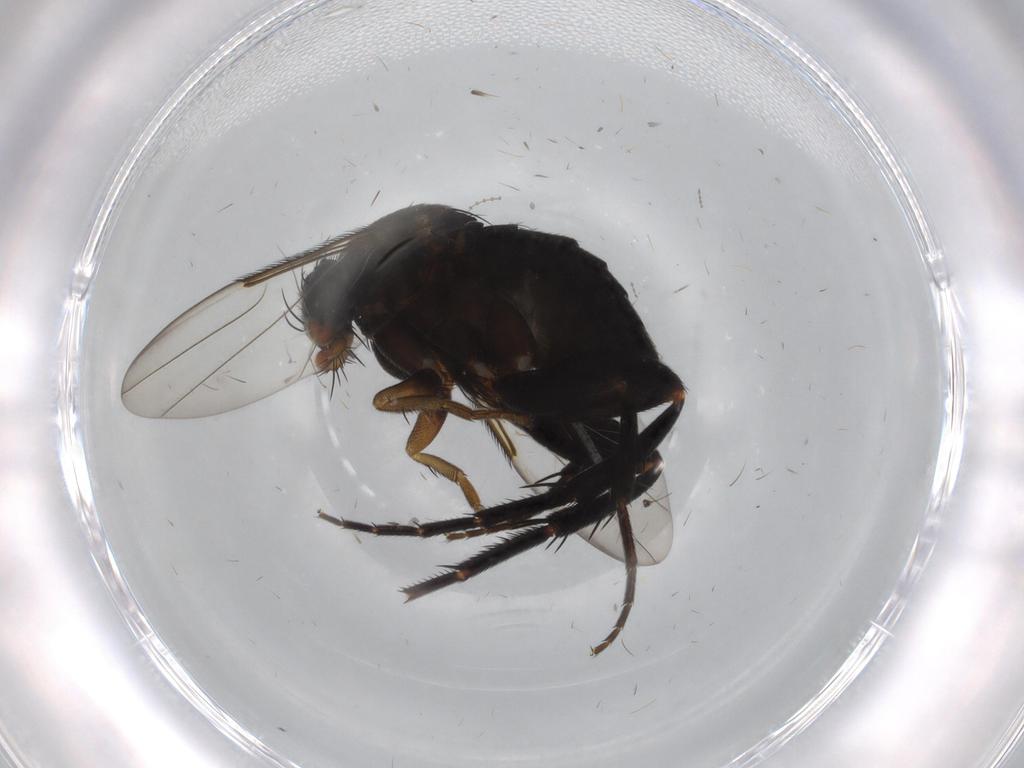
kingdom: Animalia
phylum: Arthropoda
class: Insecta
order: Diptera
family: Phoridae
